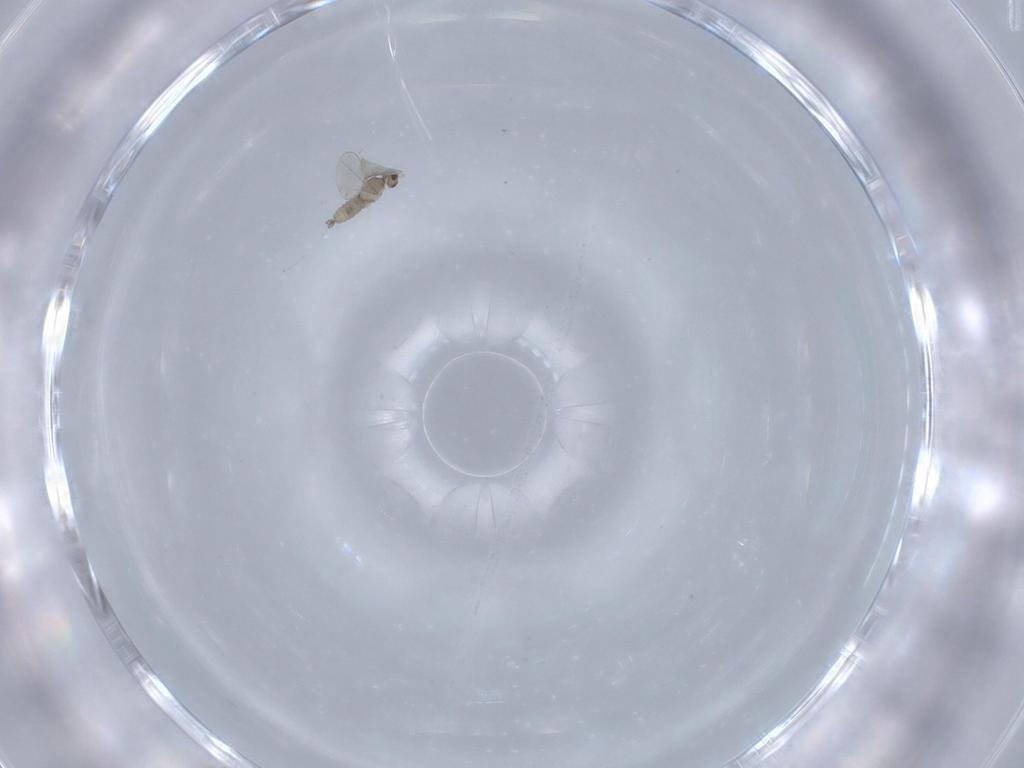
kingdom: Animalia
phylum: Arthropoda
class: Insecta
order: Diptera
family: Cecidomyiidae
